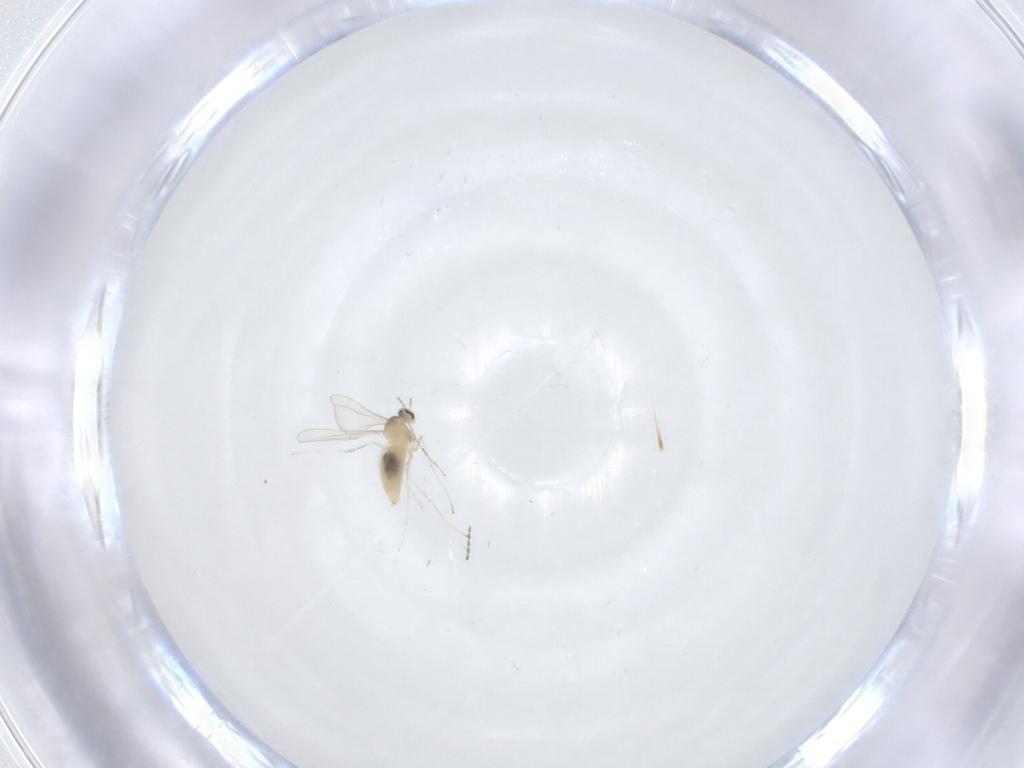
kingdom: Animalia
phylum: Arthropoda
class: Insecta
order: Diptera
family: Cecidomyiidae
